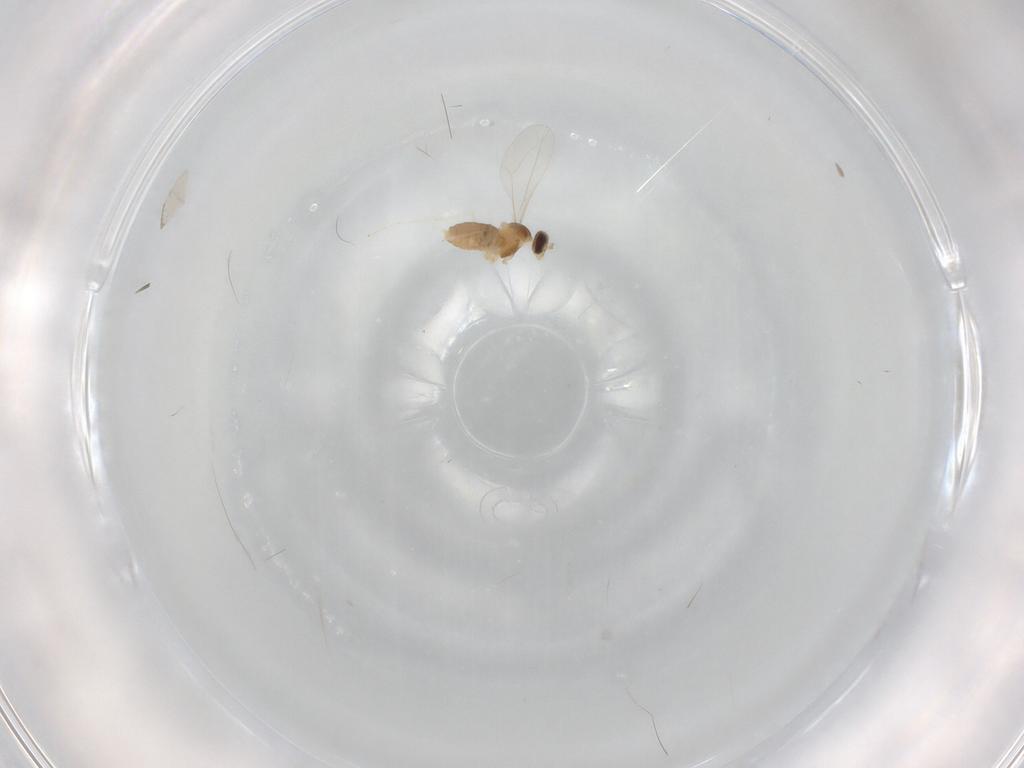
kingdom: Animalia
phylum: Arthropoda
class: Insecta
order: Diptera
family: Cecidomyiidae
